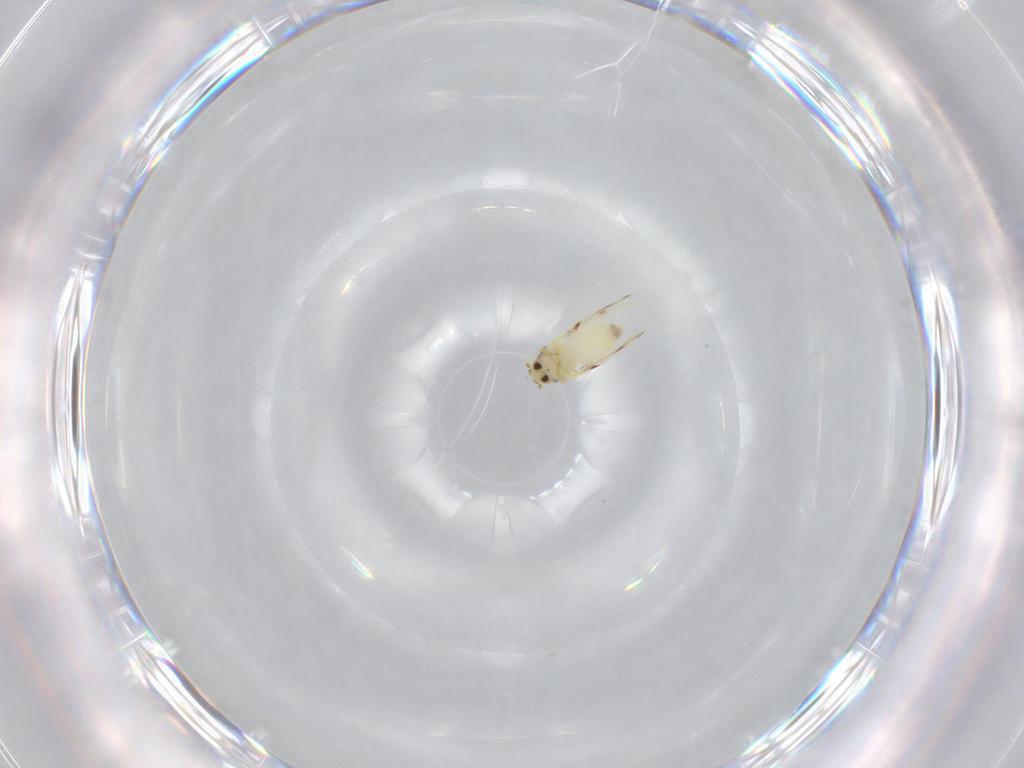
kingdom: Animalia
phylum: Arthropoda
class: Insecta
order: Hemiptera
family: Aleyrodidae
